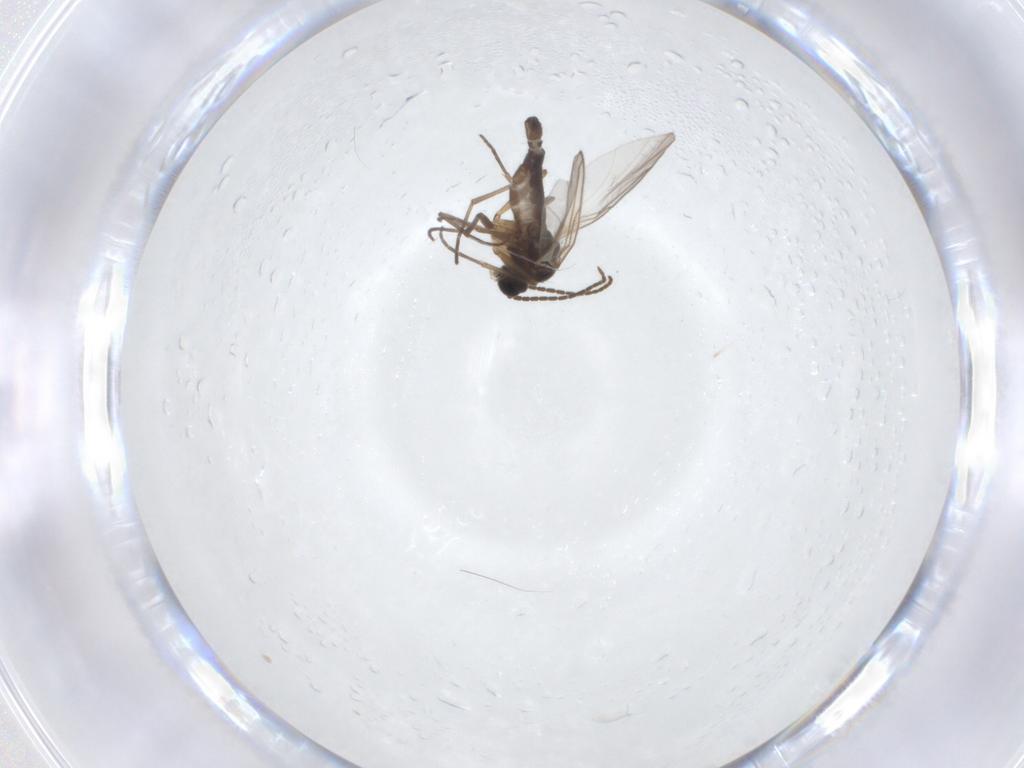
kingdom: Animalia
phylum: Arthropoda
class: Insecta
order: Diptera
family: Sciaridae
